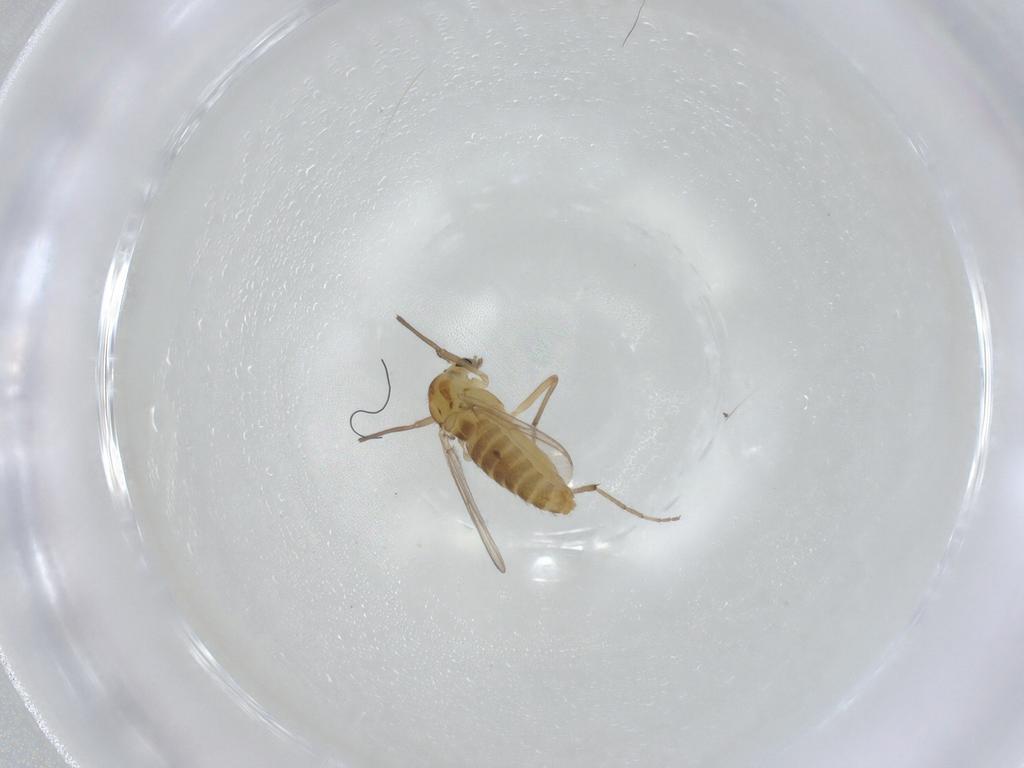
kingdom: Animalia
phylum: Arthropoda
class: Insecta
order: Diptera
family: Chironomidae
